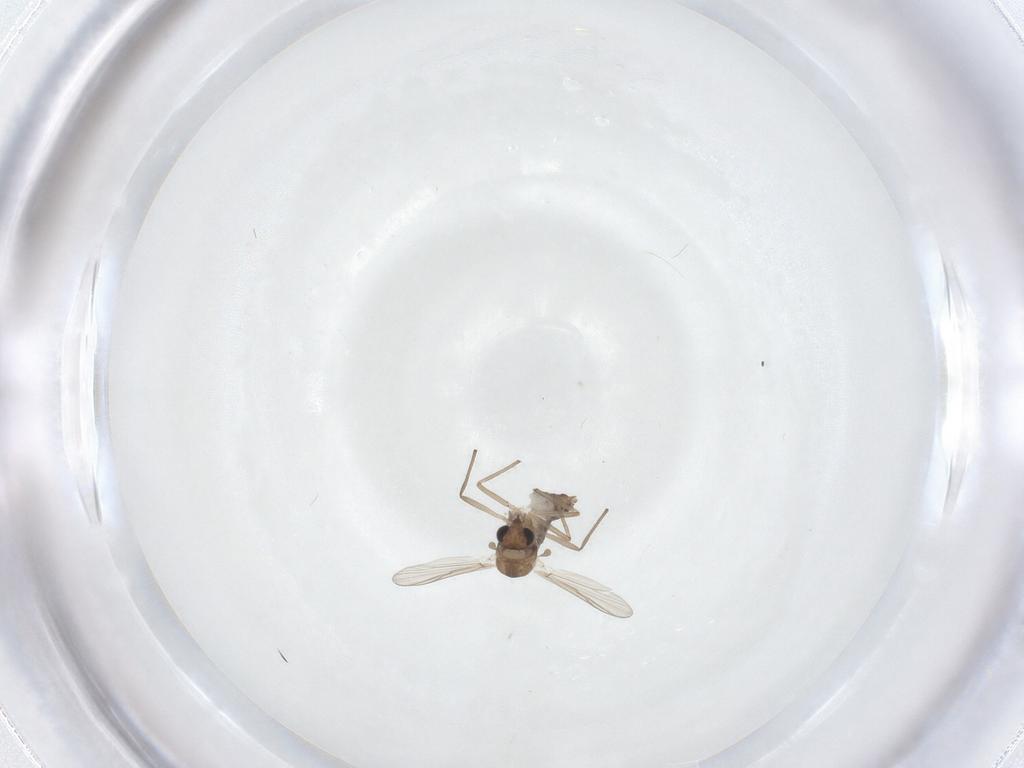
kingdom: Animalia
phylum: Arthropoda
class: Insecta
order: Diptera
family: Chironomidae
